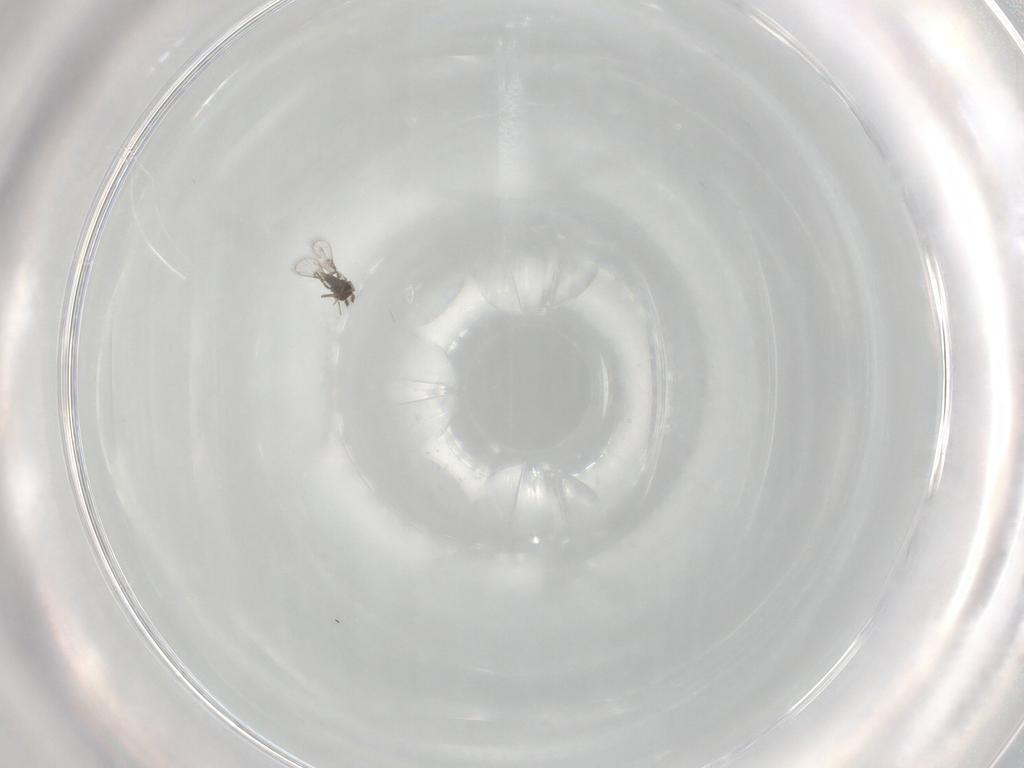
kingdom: Animalia
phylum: Arthropoda
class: Insecta
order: Hymenoptera
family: Trichogrammatidae
